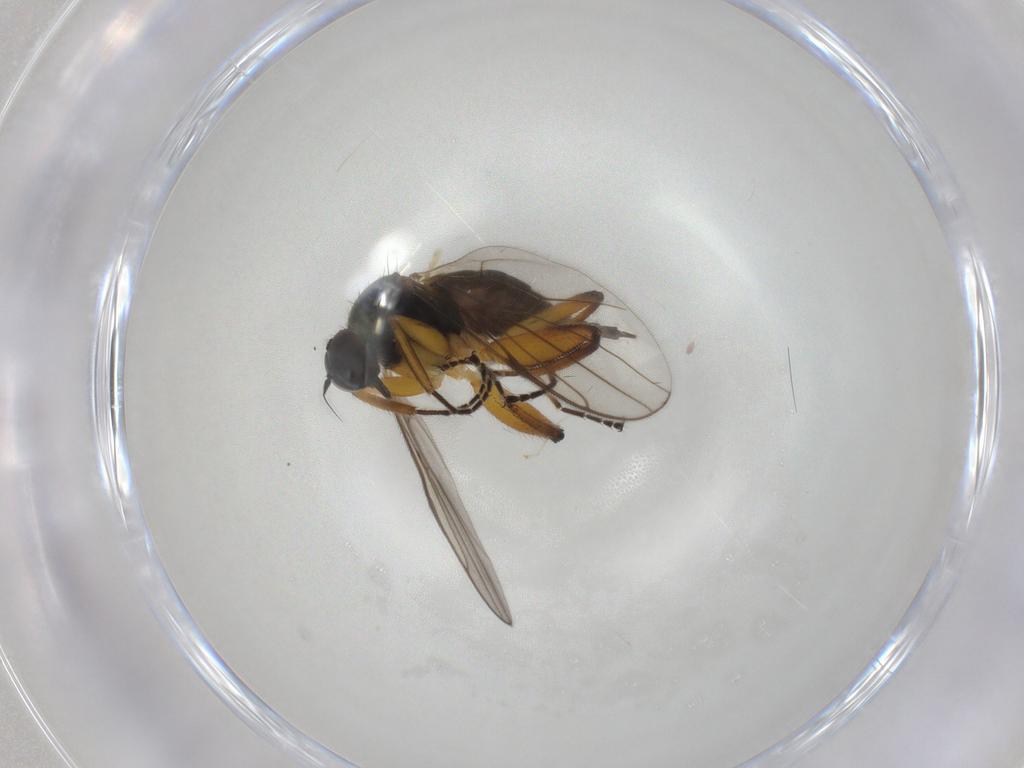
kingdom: Animalia
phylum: Arthropoda
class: Insecta
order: Diptera
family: Hybotidae
